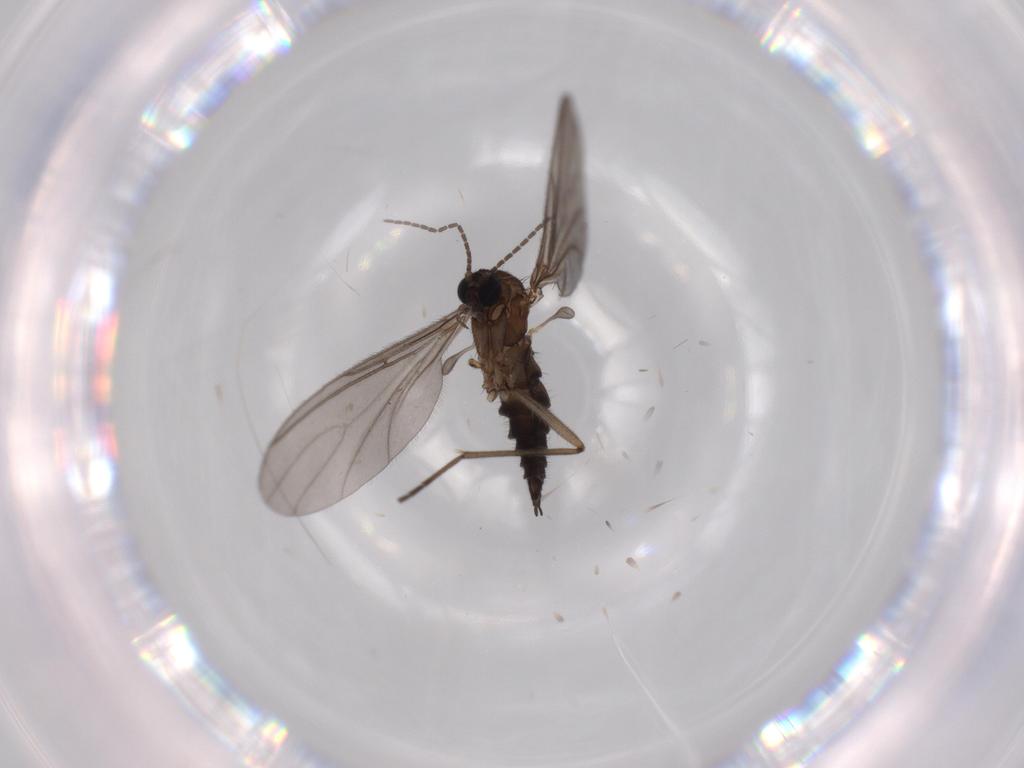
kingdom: Animalia
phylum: Arthropoda
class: Insecta
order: Diptera
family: Sciaridae
